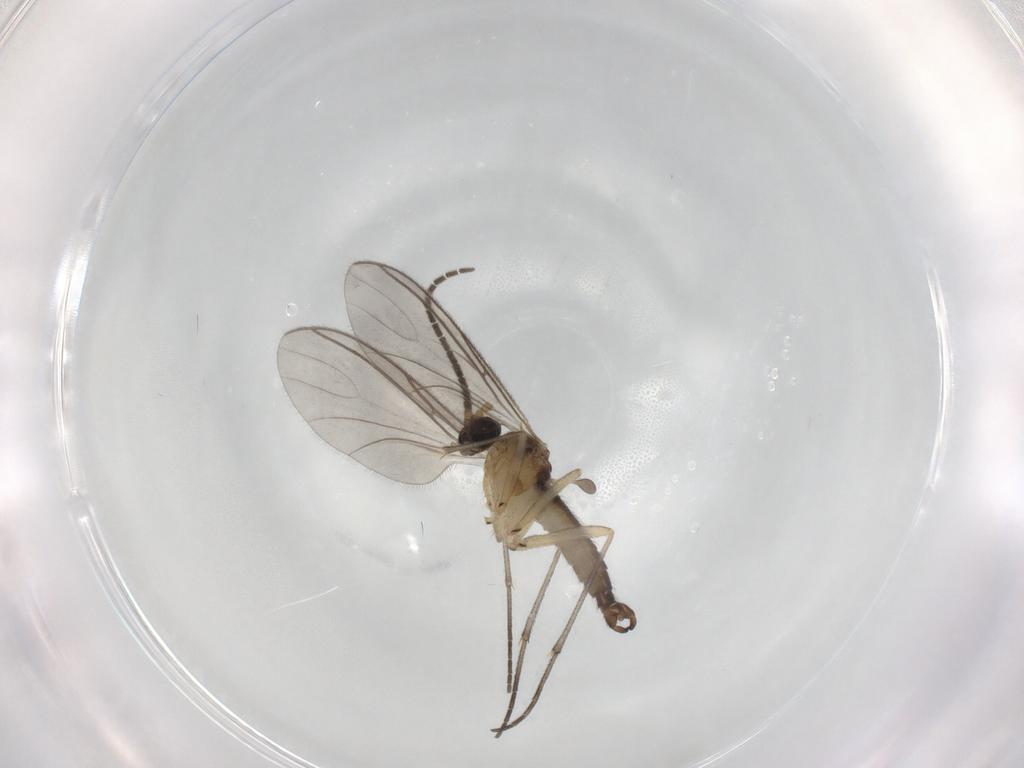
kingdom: Animalia
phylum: Arthropoda
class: Insecta
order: Diptera
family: Sciaridae
